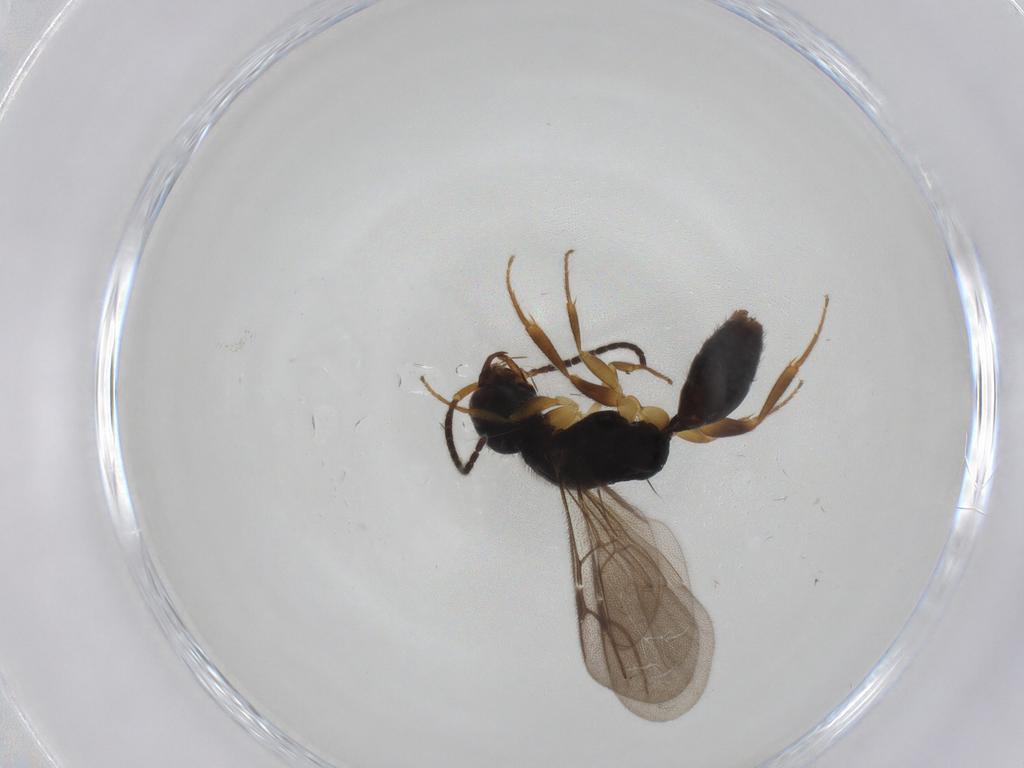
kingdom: Animalia
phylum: Arthropoda
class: Insecta
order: Hymenoptera
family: Bethylidae
